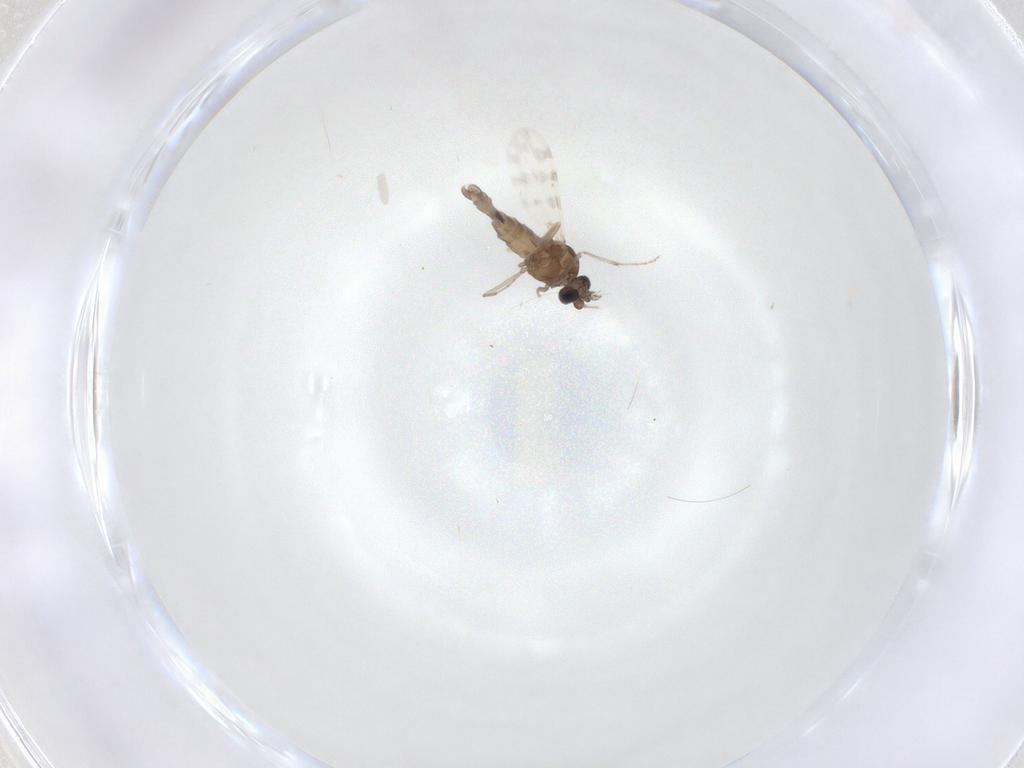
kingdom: Animalia
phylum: Arthropoda
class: Insecta
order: Diptera
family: Ceratopogonidae
